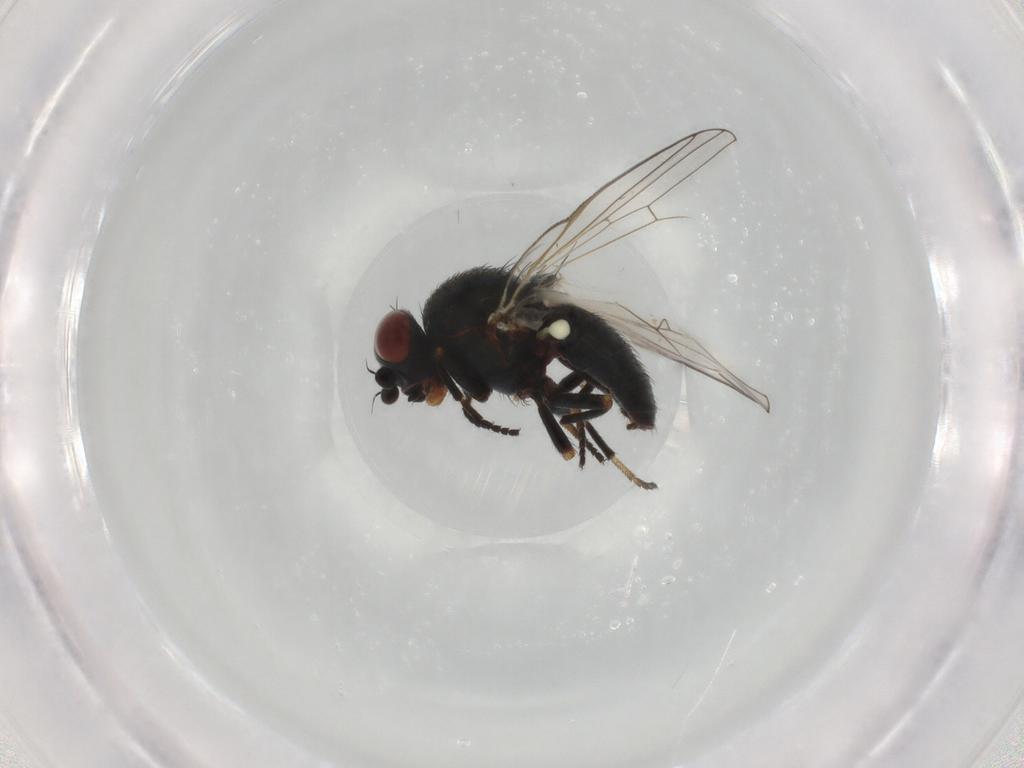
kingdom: Animalia
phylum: Arthropoda
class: Insecta
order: Diptera
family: Chamaemyiidae
